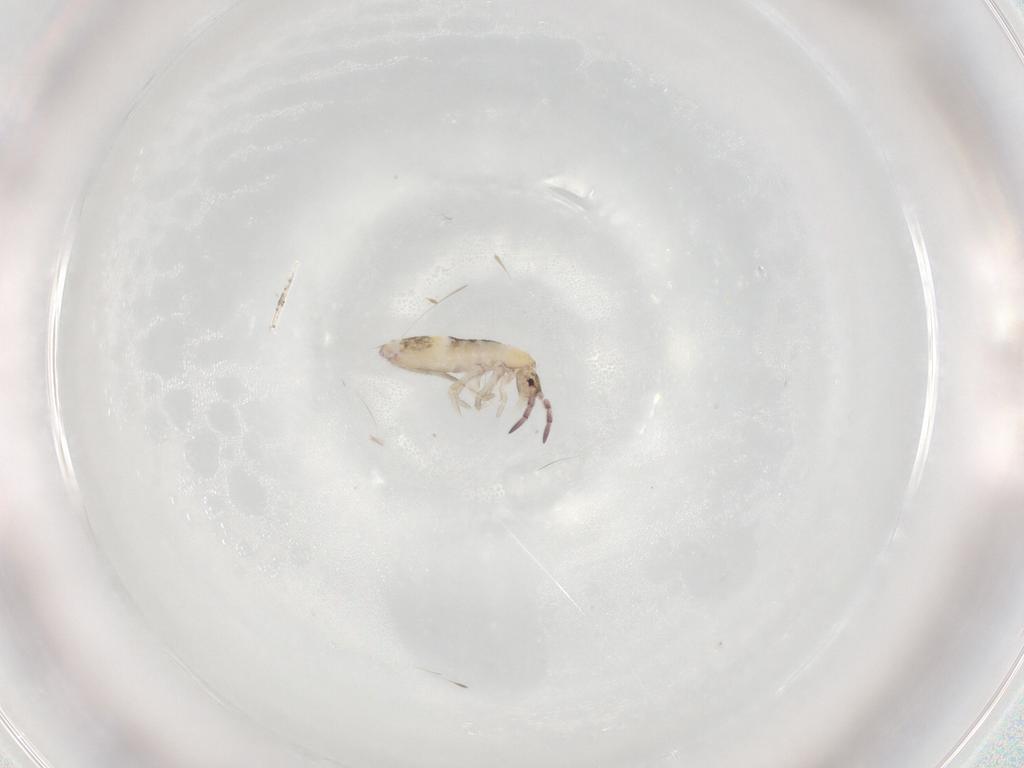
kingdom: Animalia
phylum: Arthropoda
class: Collembola
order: Entomobryomorpha
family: Entomobryidae
